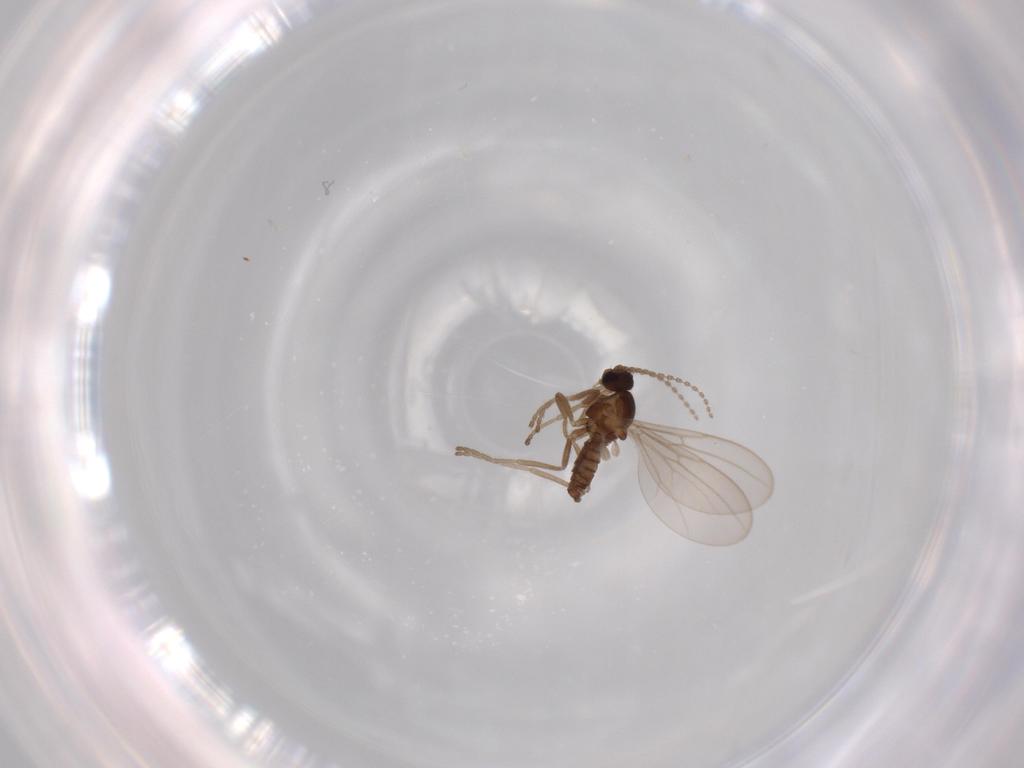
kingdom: Animalia
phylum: Arthropoda
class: Insecta
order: Diptera
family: Cecidomyiidae
